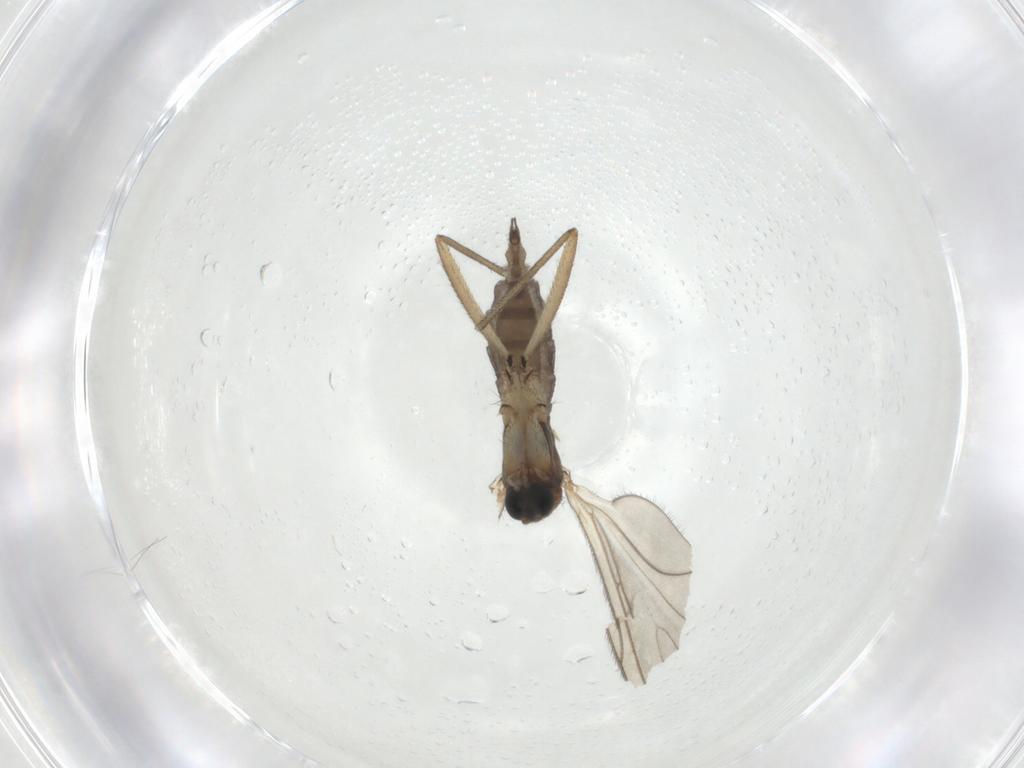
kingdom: Animalia
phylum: Arthropoda
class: Insecta
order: Diptera
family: Sciaridae
